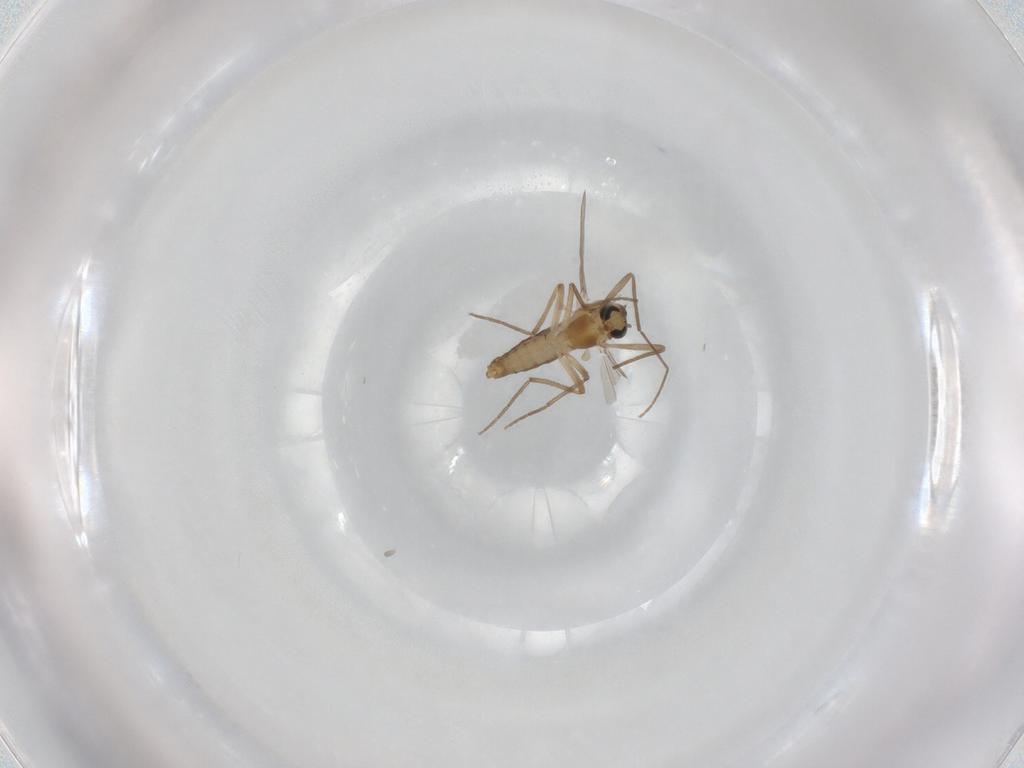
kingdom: Animalia
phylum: Arthropoda
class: Insecta
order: Diptera
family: Chironomidae
